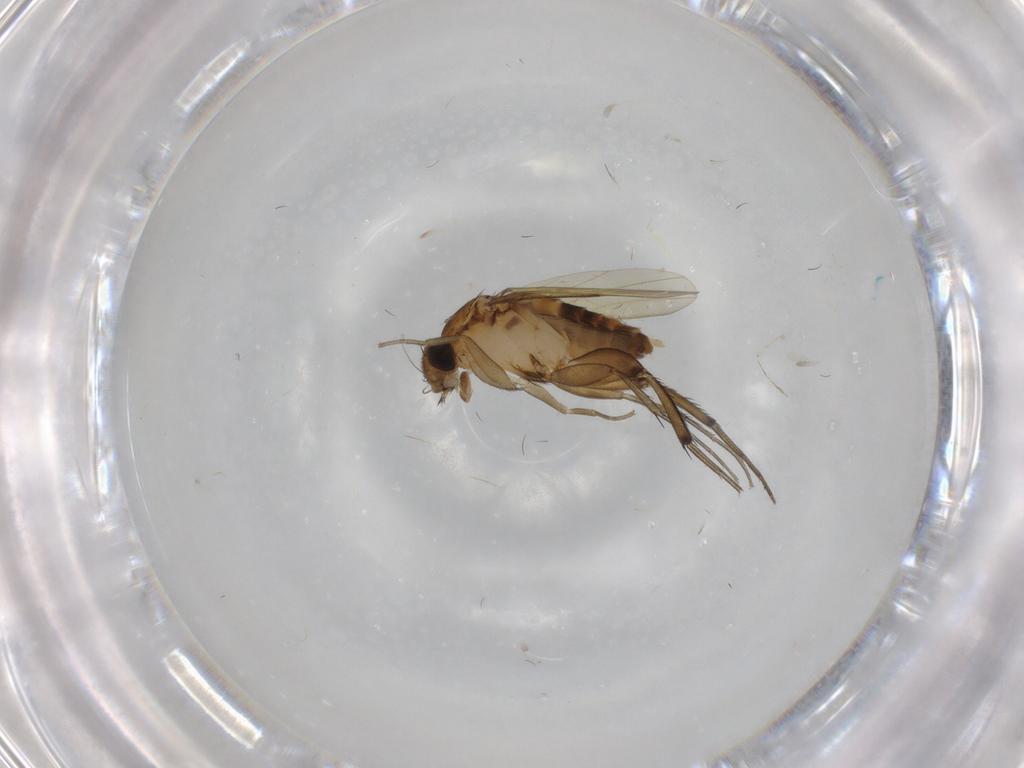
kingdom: Animalia
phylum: Arthropoda
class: Insecta
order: Diptera
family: Phoridae
